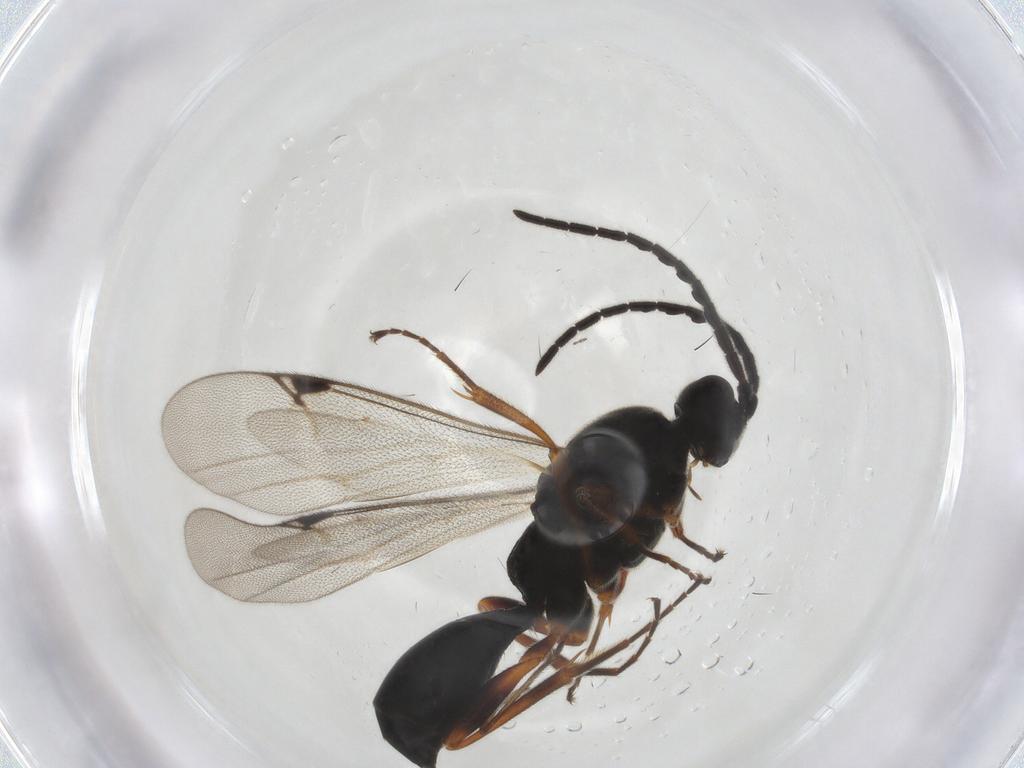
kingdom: Animalia
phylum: Arthropoda
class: Insecta
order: Hymenoptera
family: Proctotrupidae
